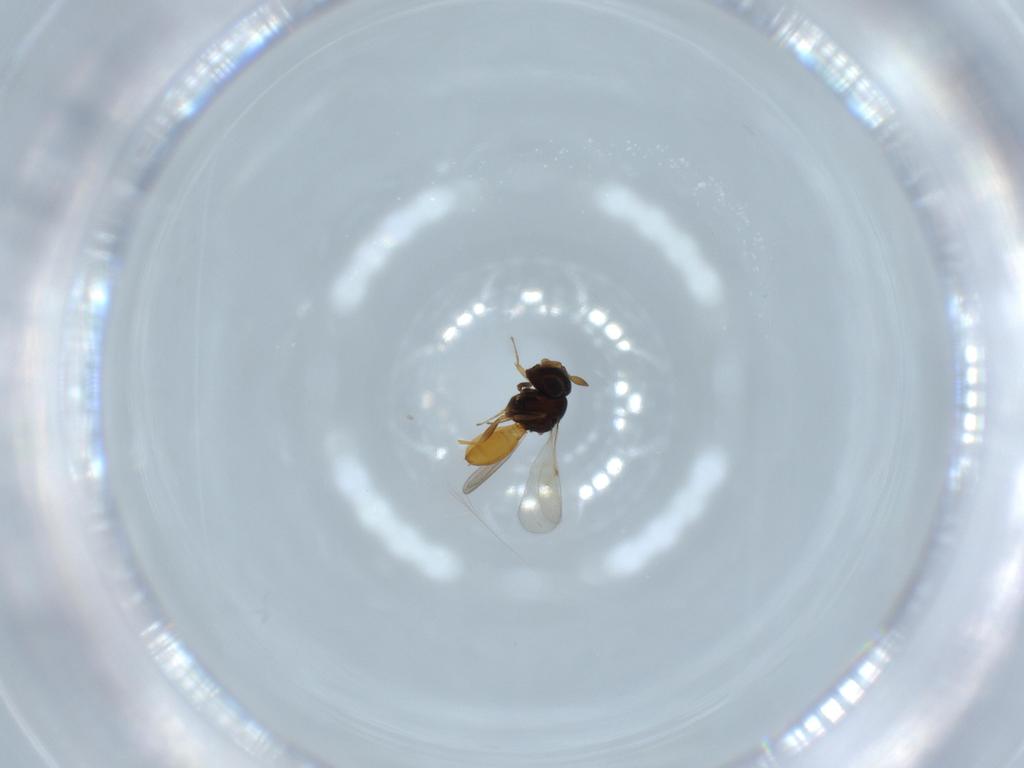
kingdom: Animalia
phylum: Arthropoda
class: Insecta
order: Hymenoptera
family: Scelionidae
